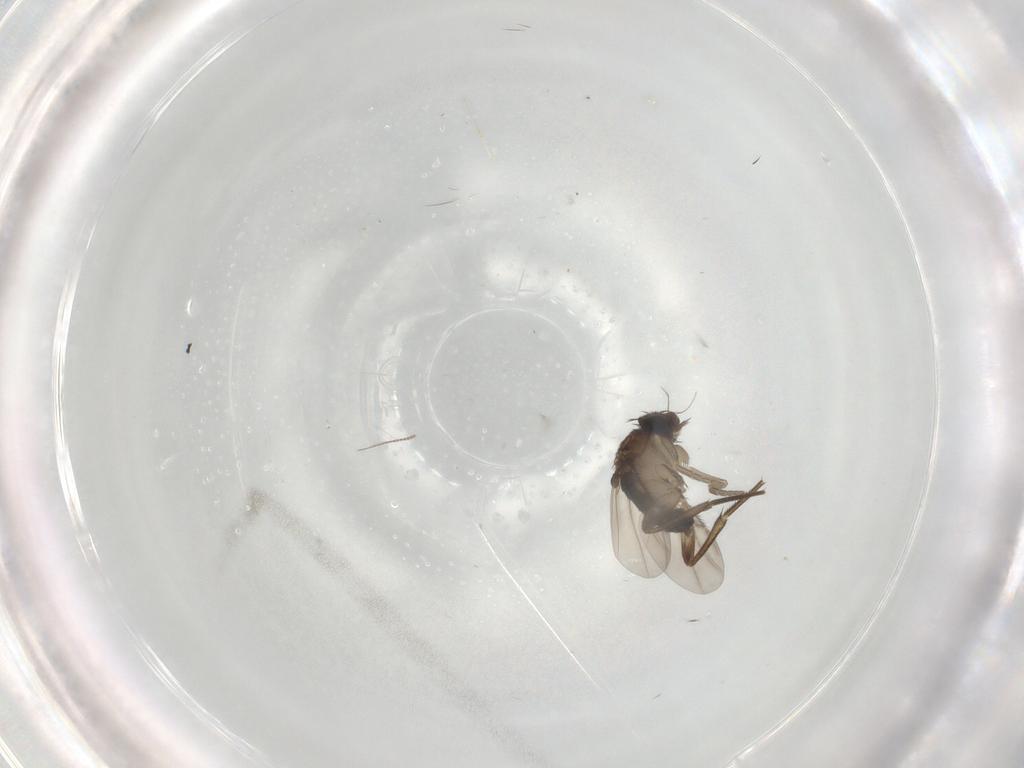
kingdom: Animalia
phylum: Arthropoda
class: Insecta
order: Diptera
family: Phoridae
